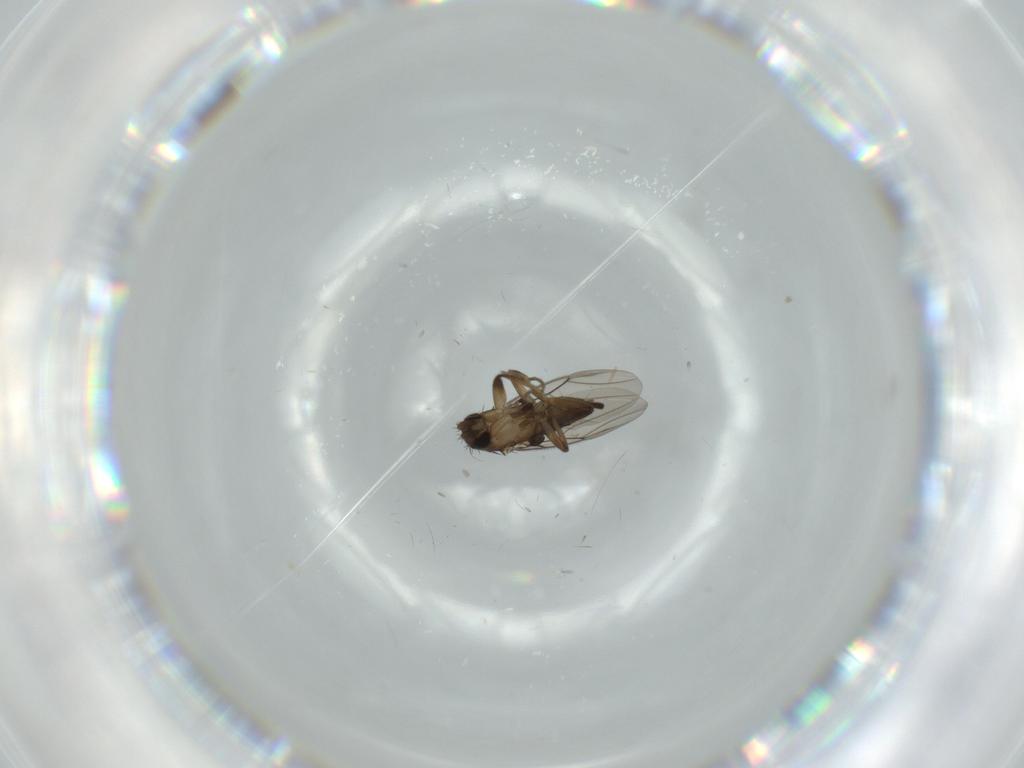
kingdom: Animalia
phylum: Arthropoda
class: Insecta
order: Diptera
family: Phoridae
